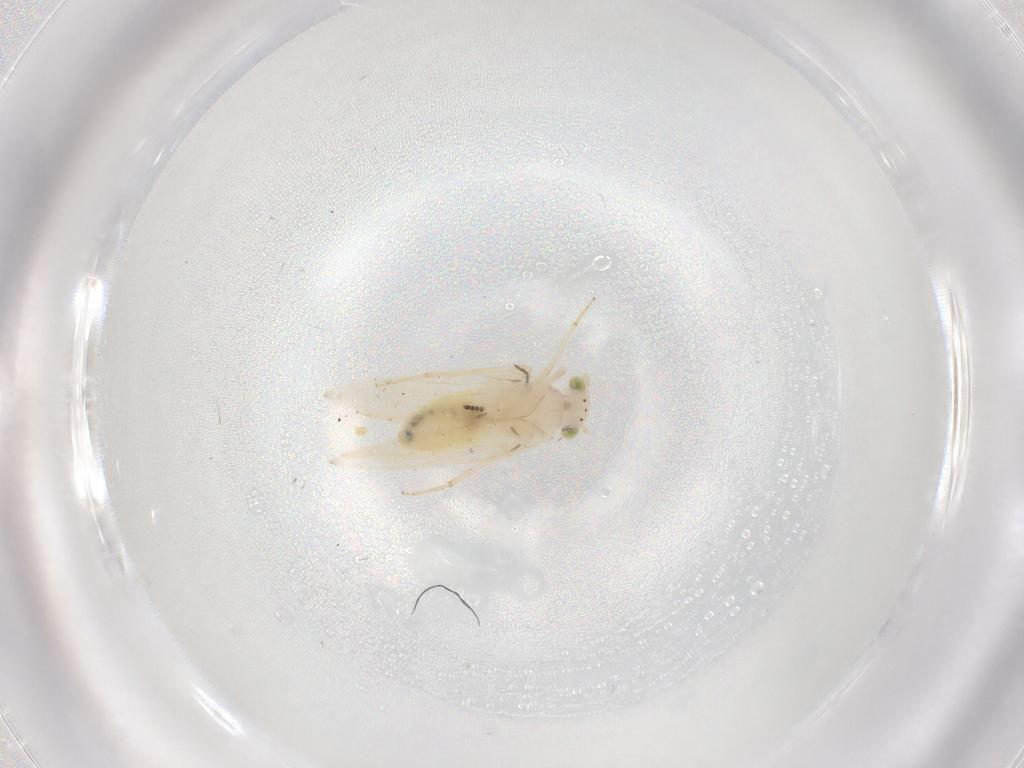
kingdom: Animalia
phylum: Arthropoda
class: Insecta
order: Psocodea
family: Lepidopsocidae
